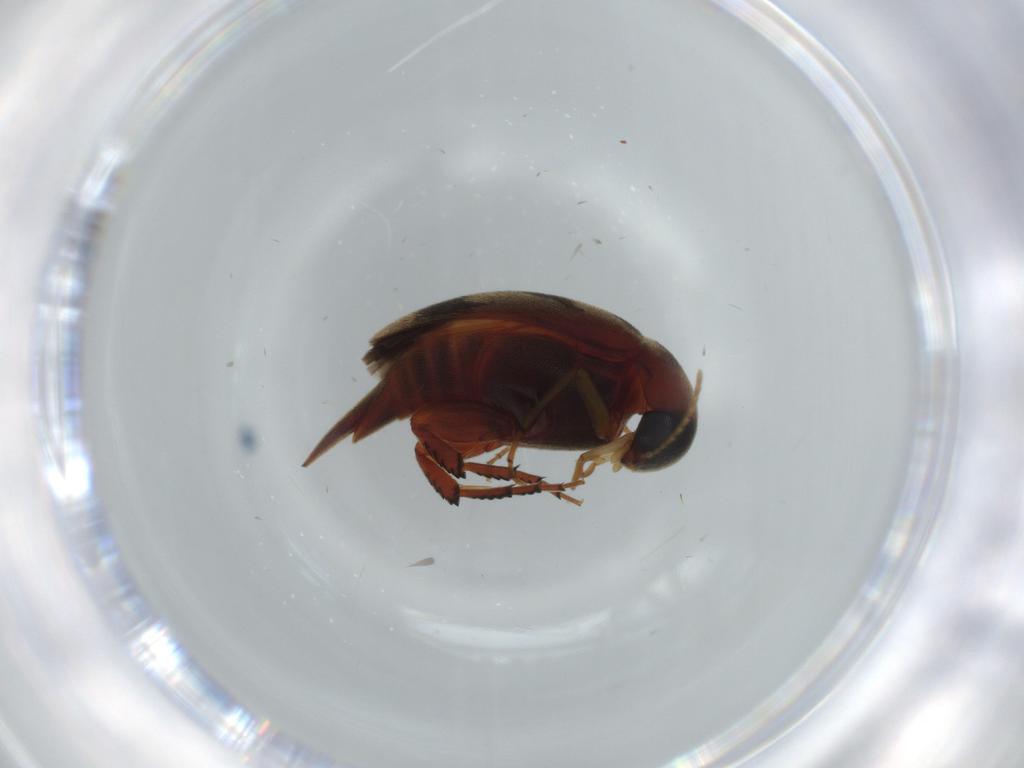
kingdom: Animalia
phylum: Arthropoda
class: Insecta
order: Coleoptera
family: Mordellidae
